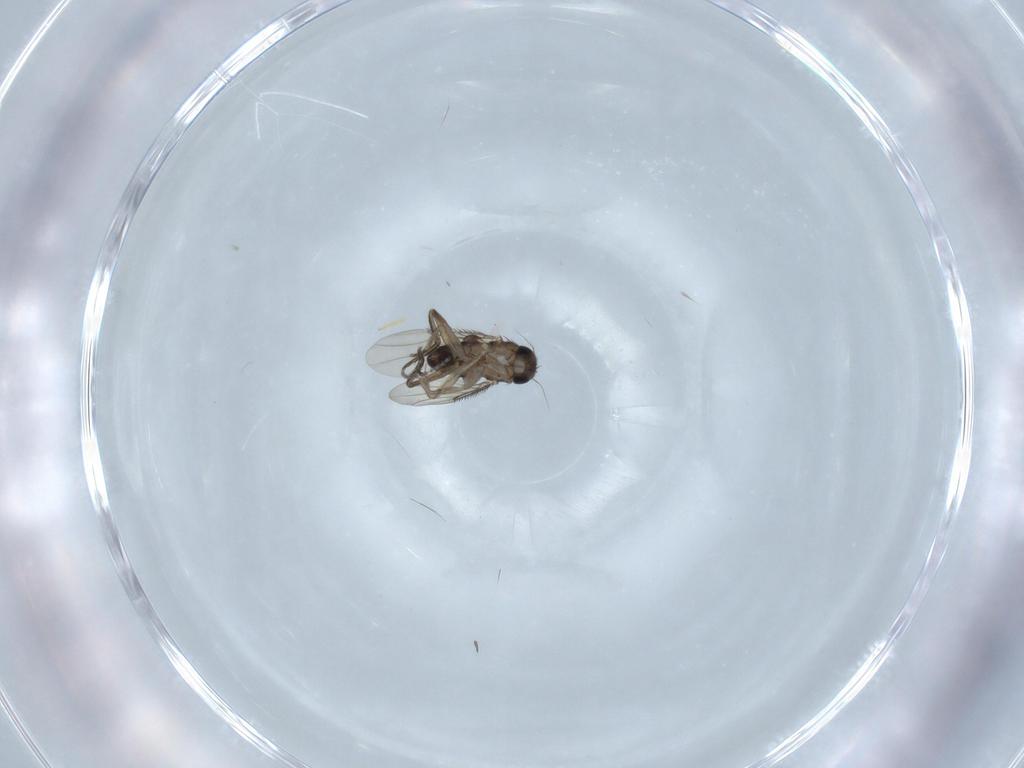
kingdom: Animalia
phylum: Arthropoda
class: Insecta
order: Diptera
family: Phoridae
